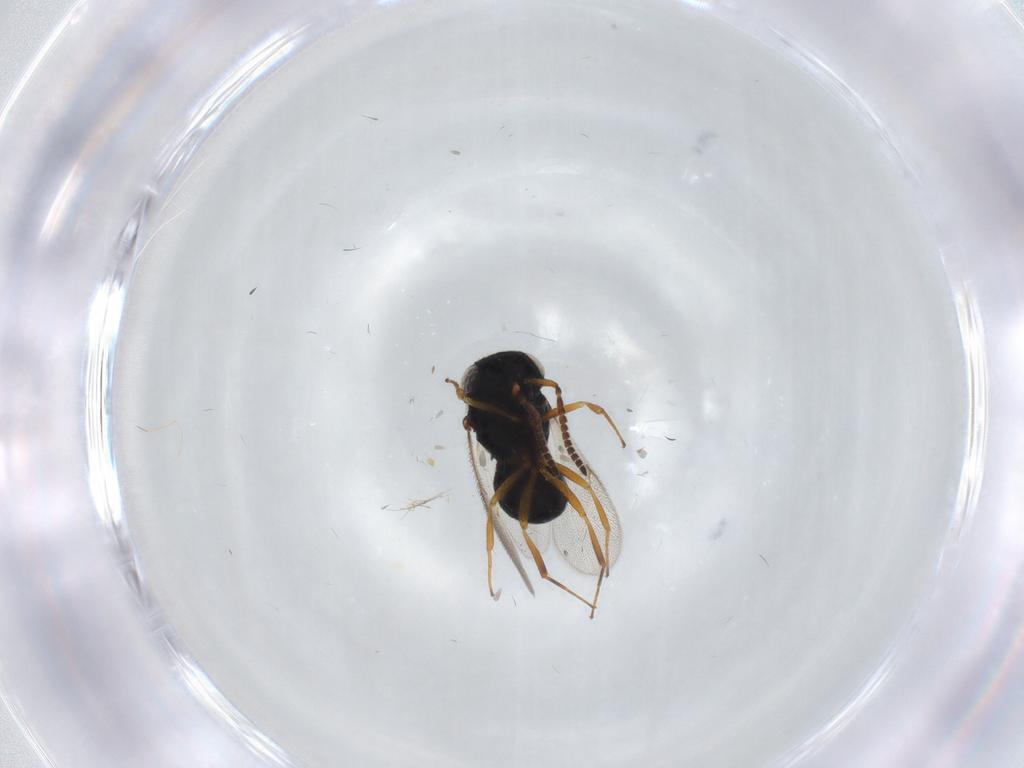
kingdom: Animalia
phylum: Arthropoda
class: Insecta
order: Hymenoptera
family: Scelionidae
